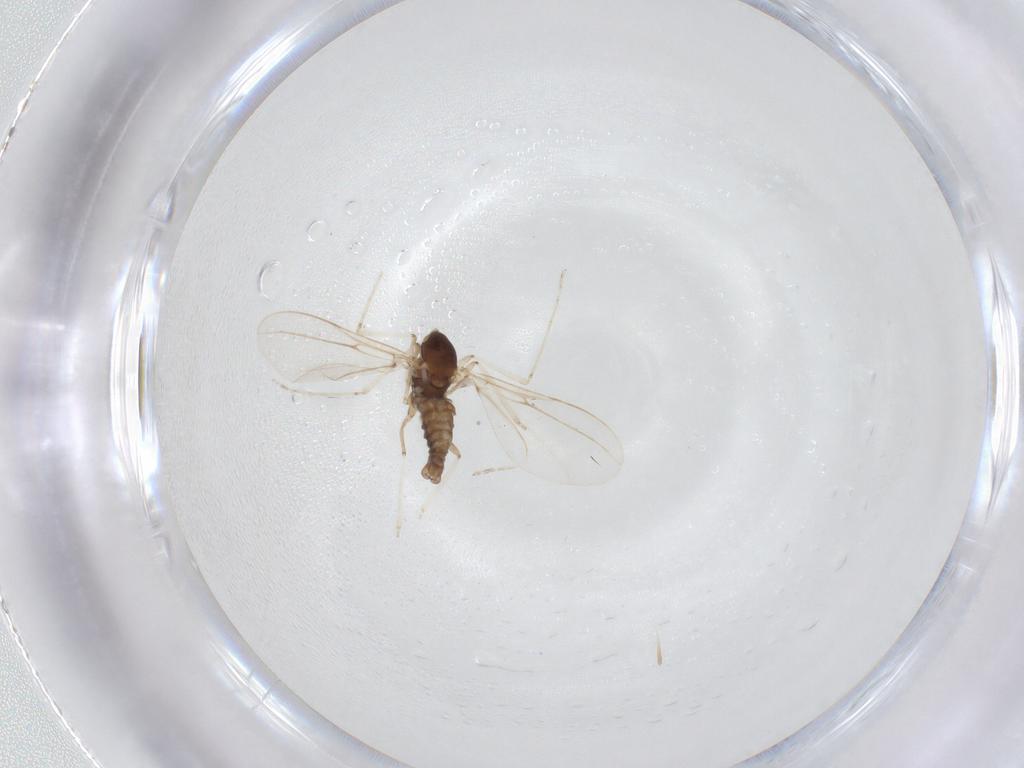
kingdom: Animalia
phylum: Arthropoda
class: Insecta
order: Diptera
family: Cecidomyiidae
